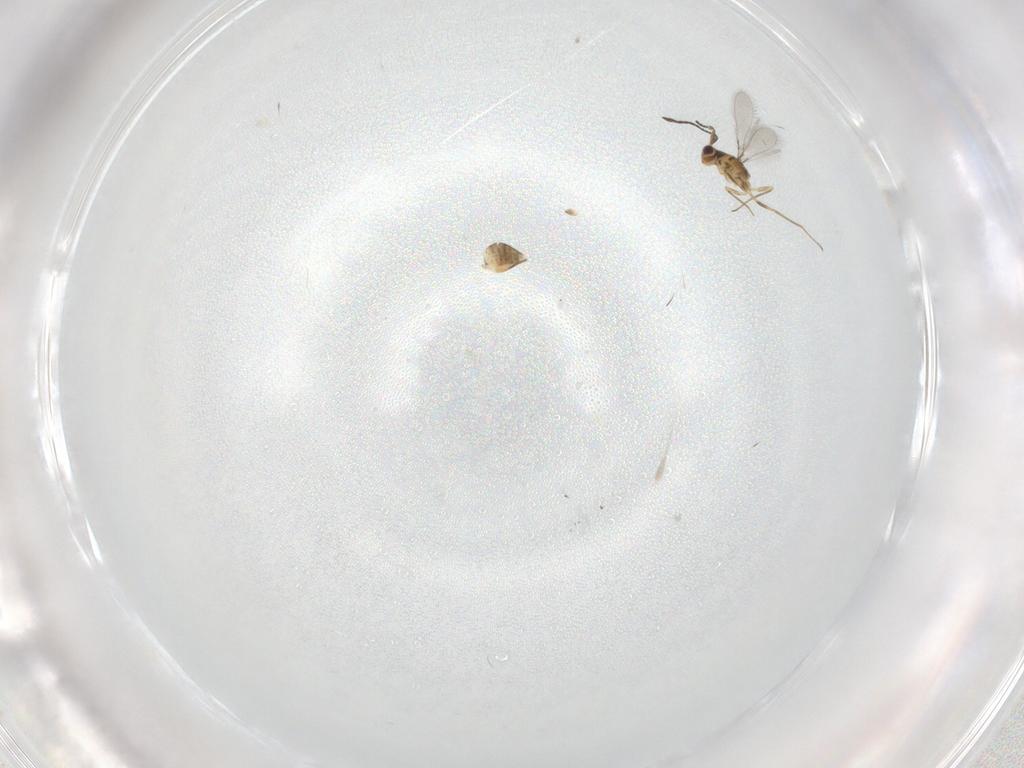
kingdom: Animalia
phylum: Arthropoda
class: Insecta
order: Hymenoptera
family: Mymaridae
